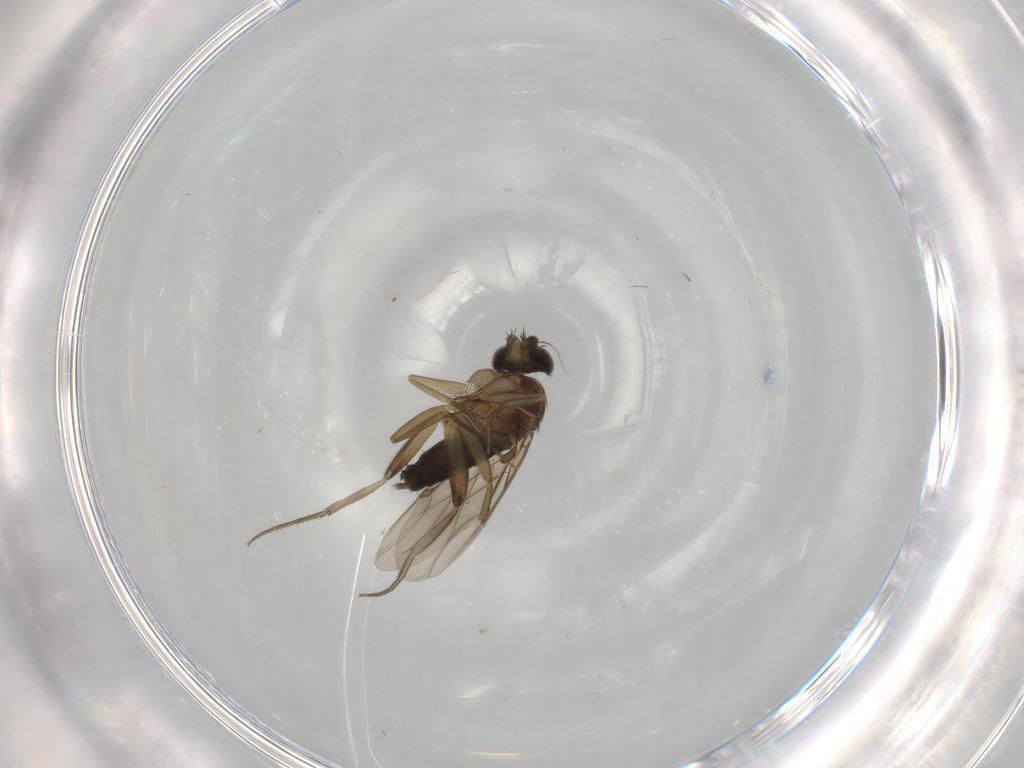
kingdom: Animalia
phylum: Arthropoda
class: Insecta
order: Diptera
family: Phoridae
